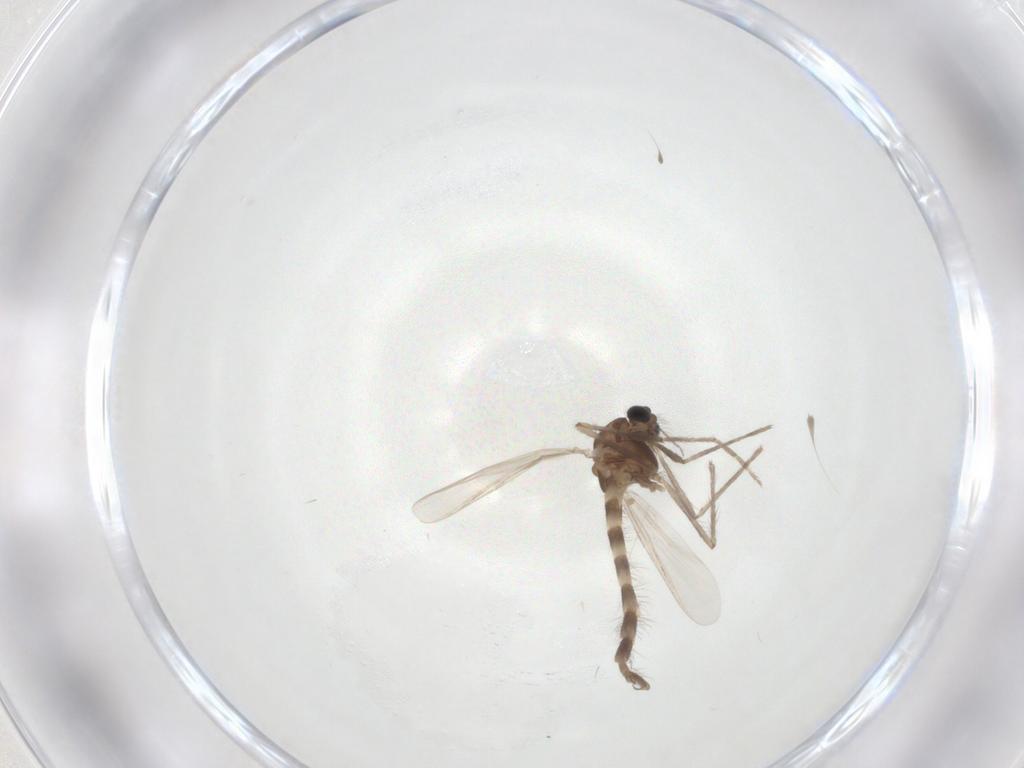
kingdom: Animalia
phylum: Arthropoda
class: Insecta
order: Diptera
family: Chironomidae
